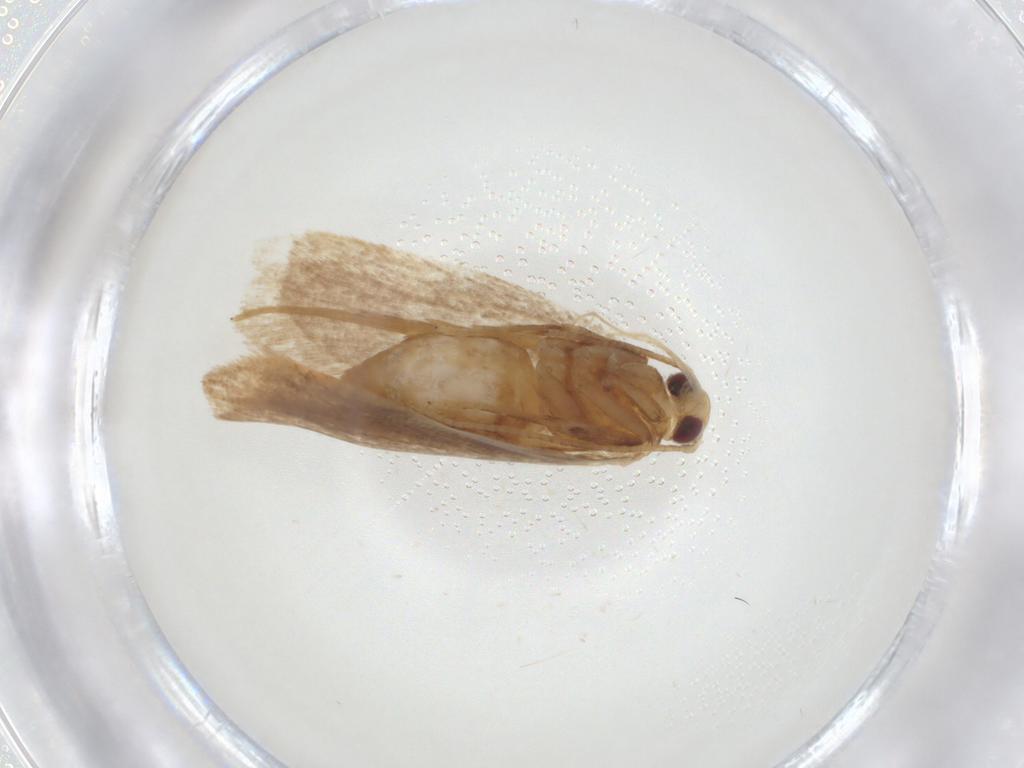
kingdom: Animalia
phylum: Arthropoda
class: Insecta
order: Lepidoptera
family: Oecophoridae
